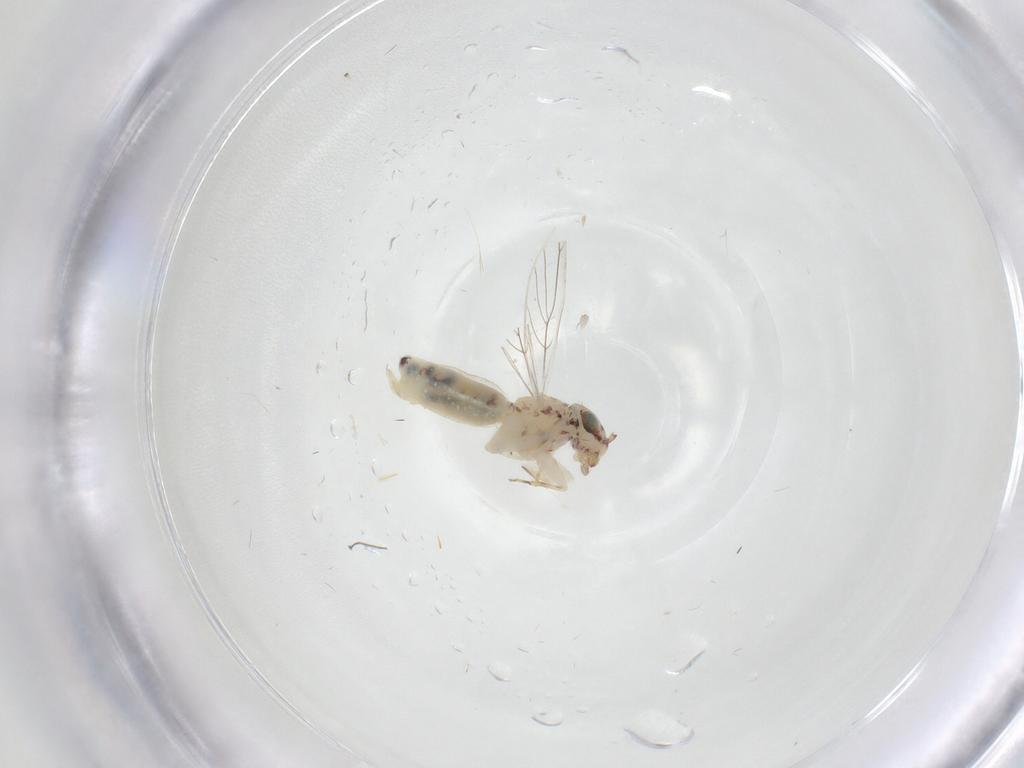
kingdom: Animalia
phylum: Arthropoda
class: Insecta
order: Psocodea
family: Lepidopsocidae
